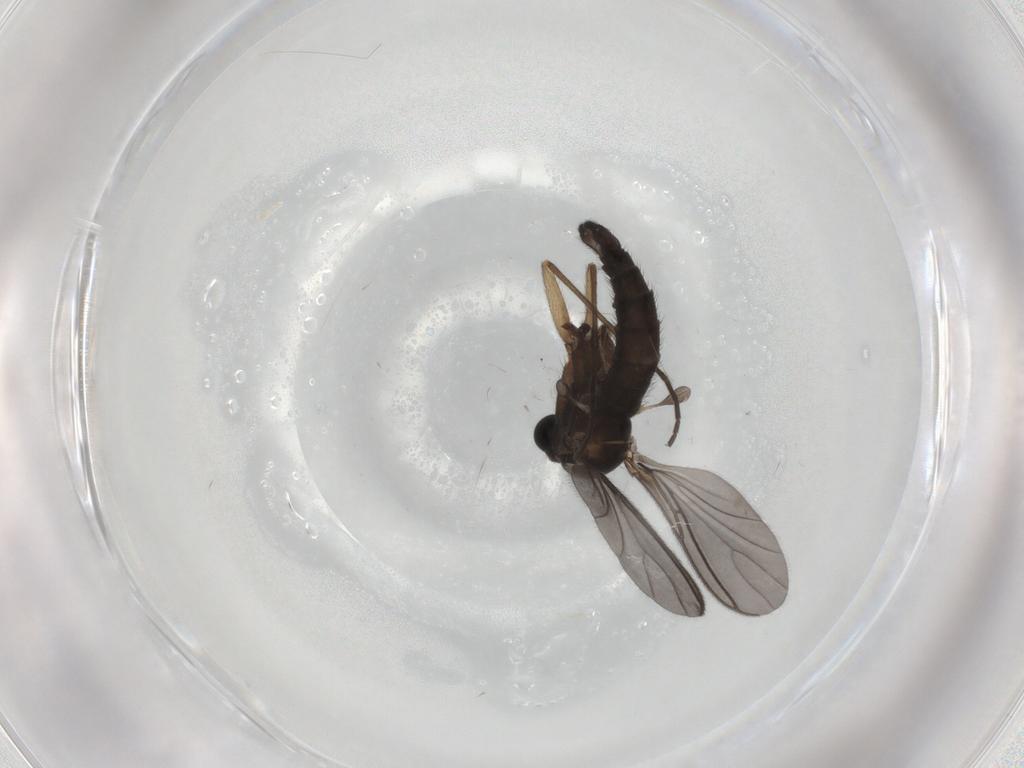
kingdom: Animalia
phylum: Arthropoda
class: Insecta
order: Diptera
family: Sciaridae
